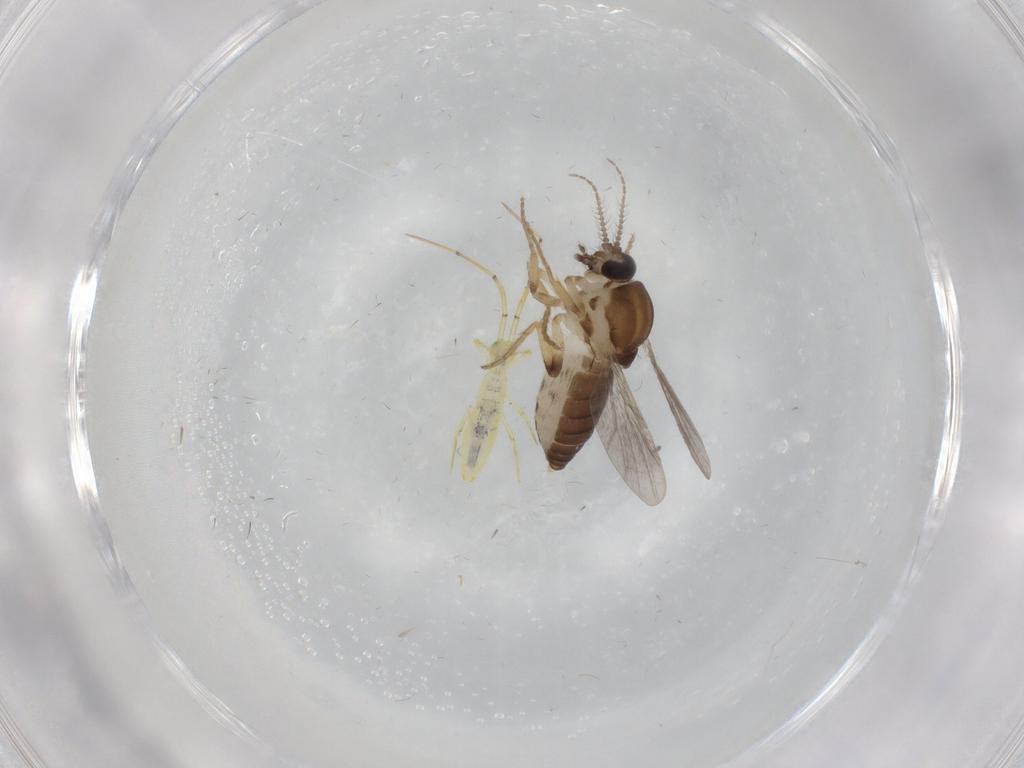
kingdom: Animalia
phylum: Arthropoda
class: Insecta
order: Diptera
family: Ceratopogonidae
